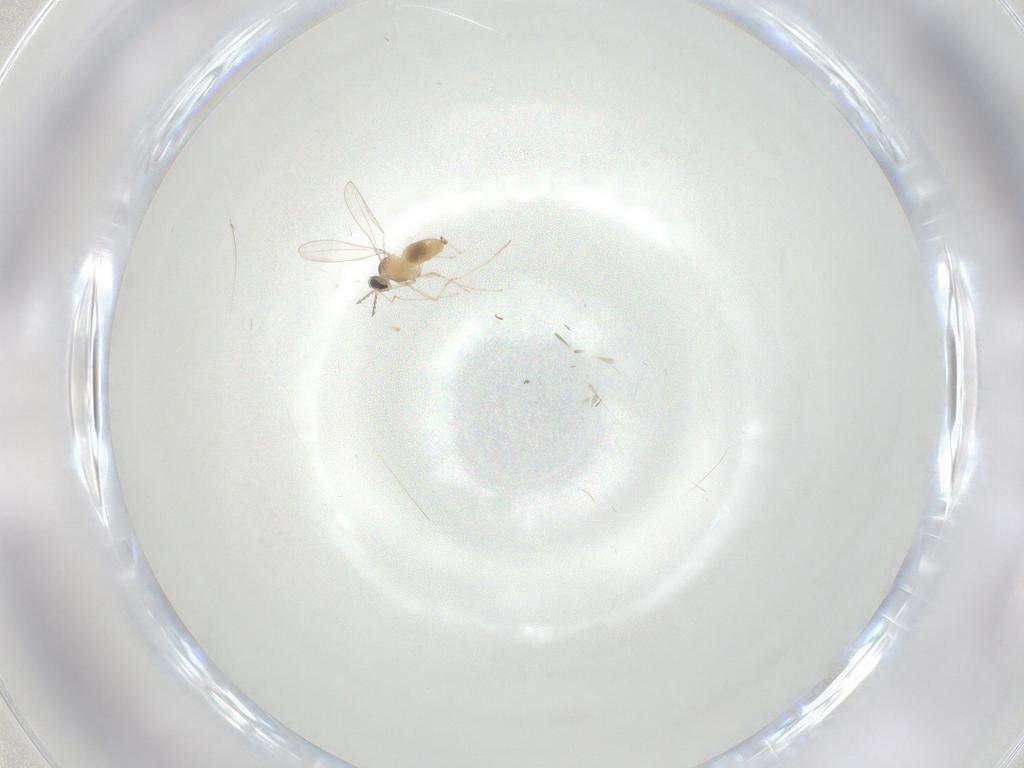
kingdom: Animalia
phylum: Arthropoda
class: Insecta
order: Diptera
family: Cecidomyiidae
